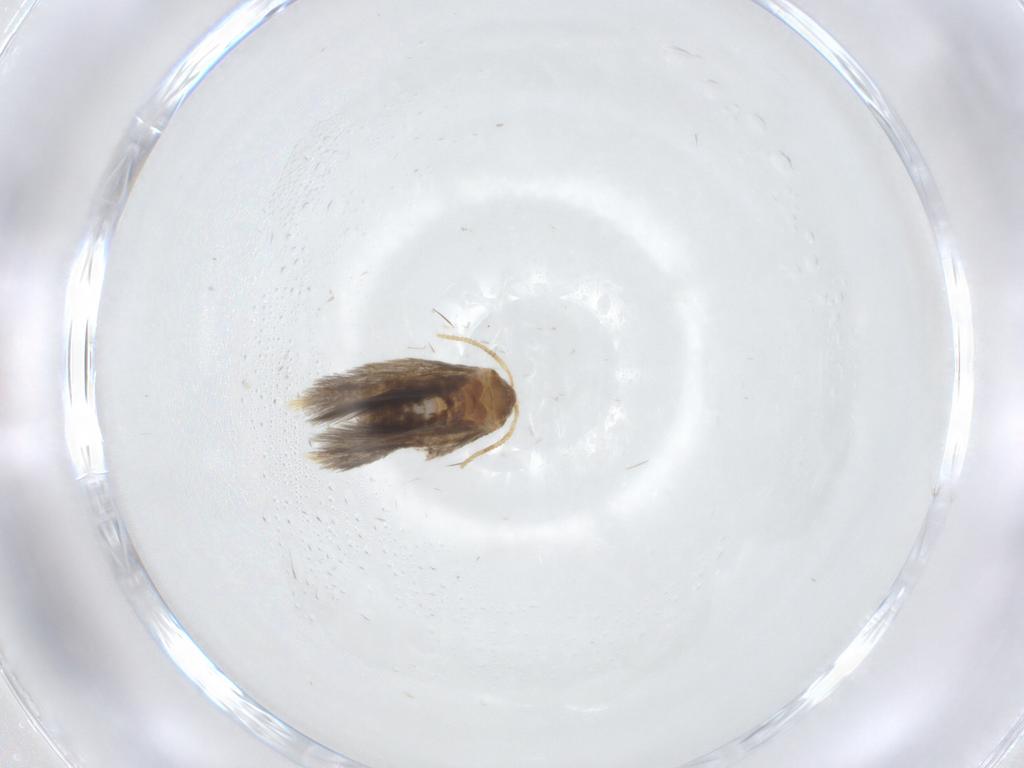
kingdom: Animalia
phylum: Arthropoda
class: Insecta
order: Lepidoptera
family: Copromorphidae
